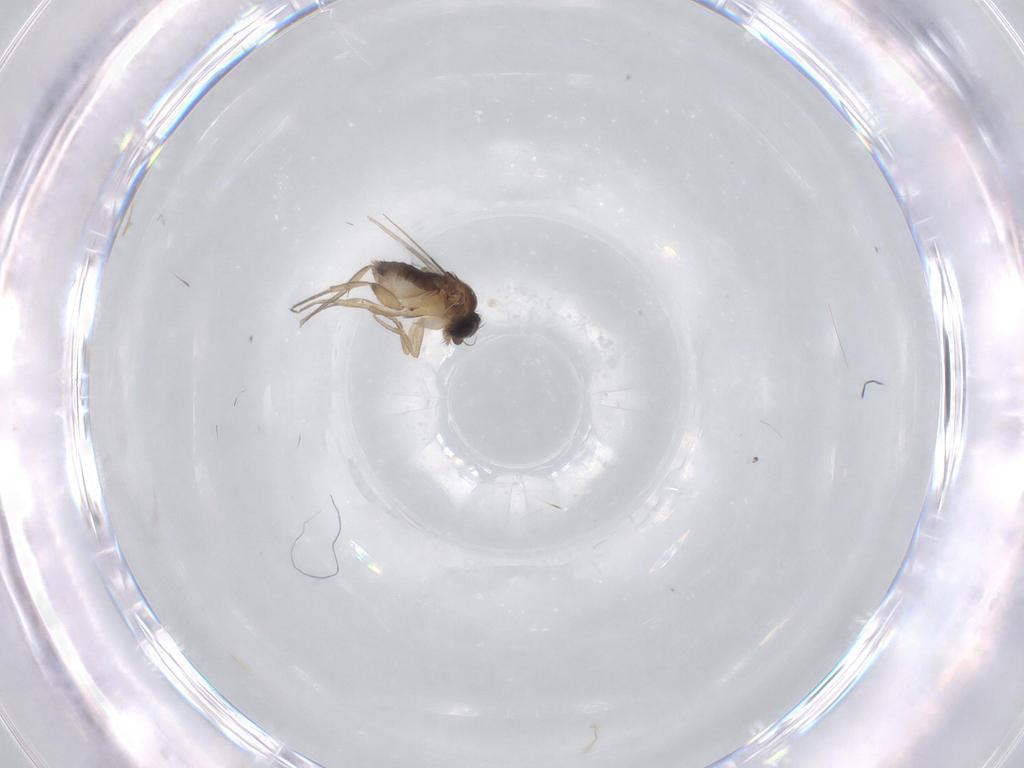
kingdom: Animalia
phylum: Arthropoda
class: Insecta
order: Diptera
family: Phoridae
